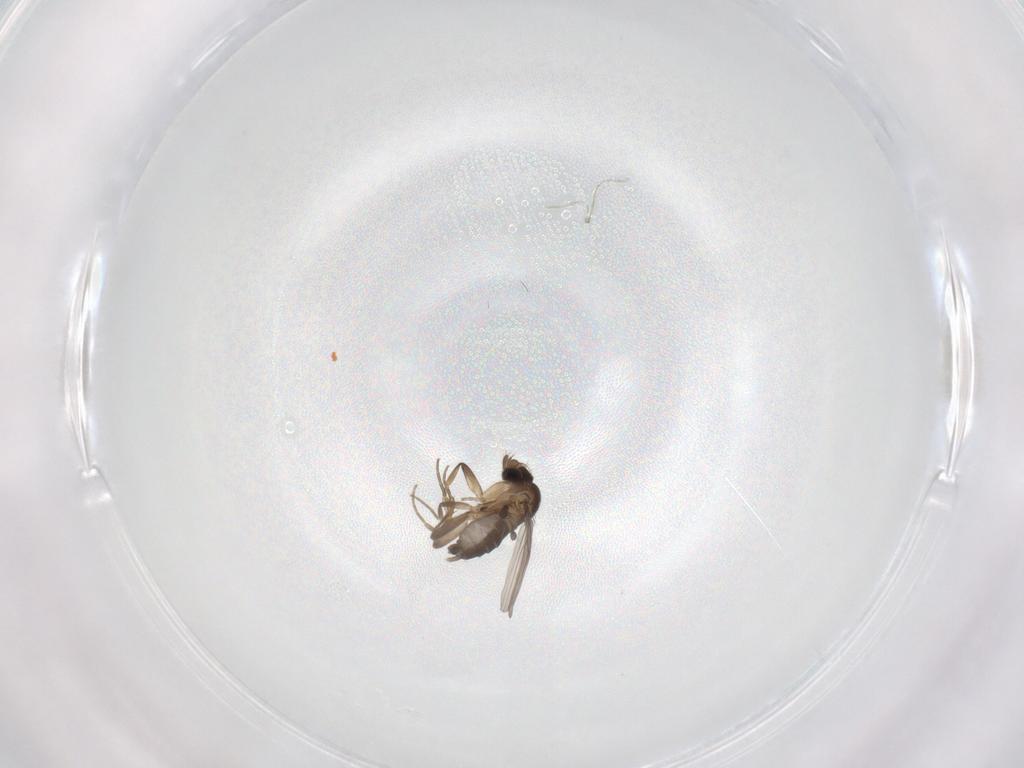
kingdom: Animalia
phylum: Arthropoda
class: Insecta
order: Diptera
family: Phoridae
